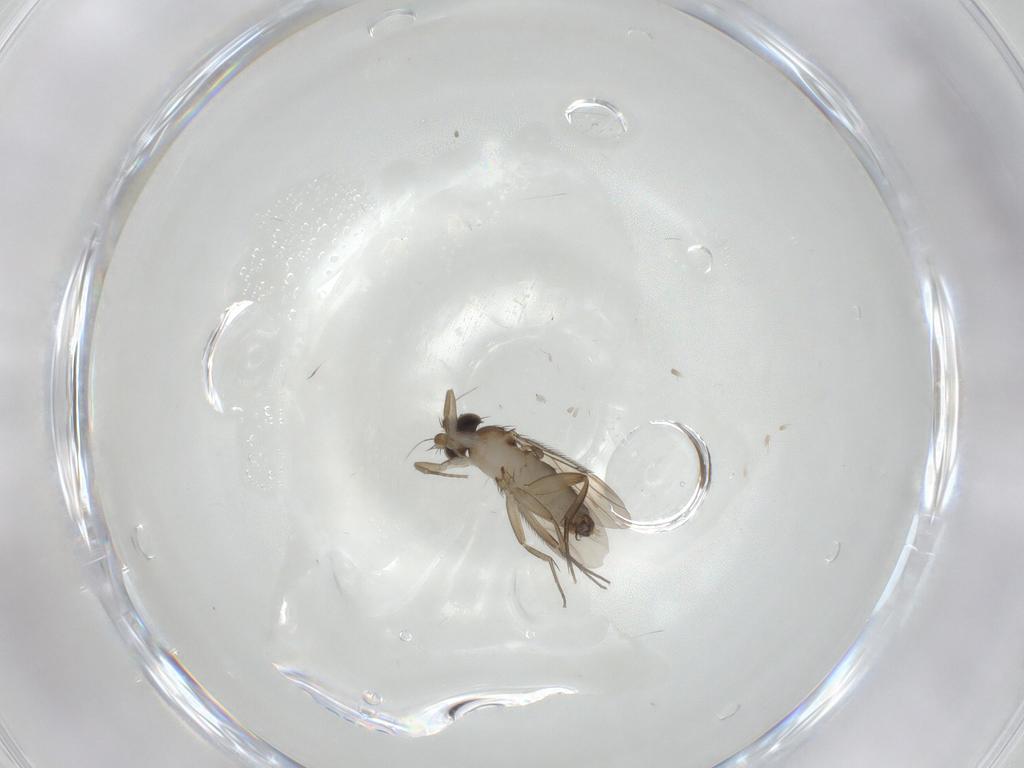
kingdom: Animalia
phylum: Arthropoda
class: Insecta
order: Diptera
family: Phoridae
